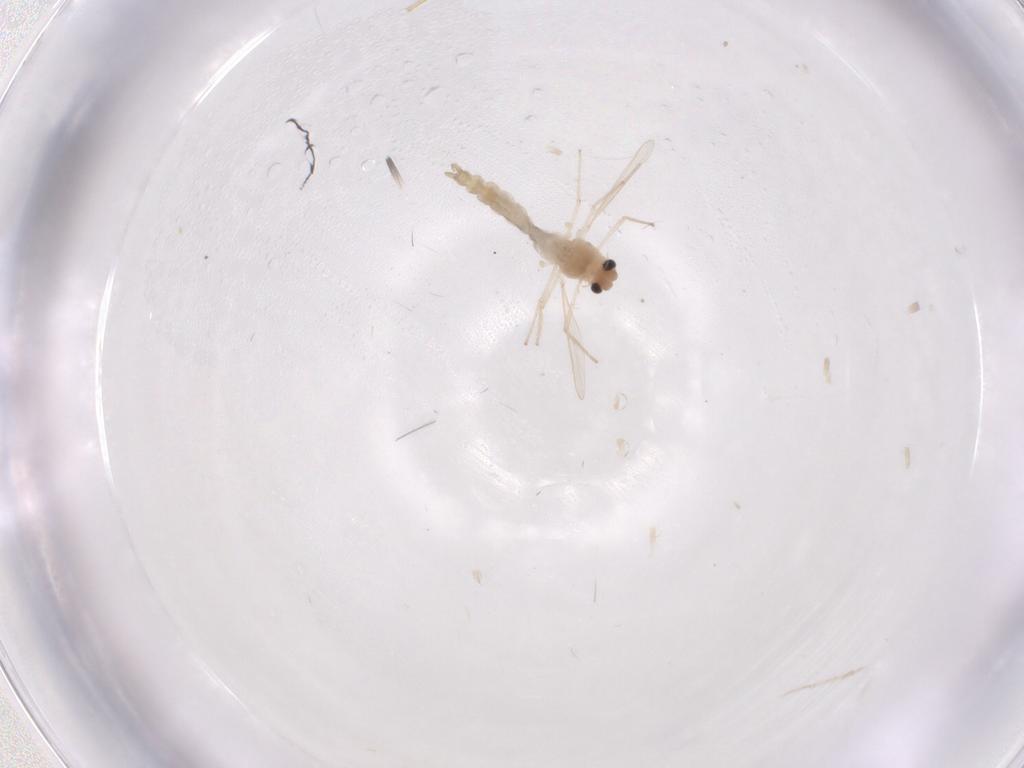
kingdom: Animalia
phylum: Arthropoda
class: Insecta
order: Diptera
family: Psychodidae
